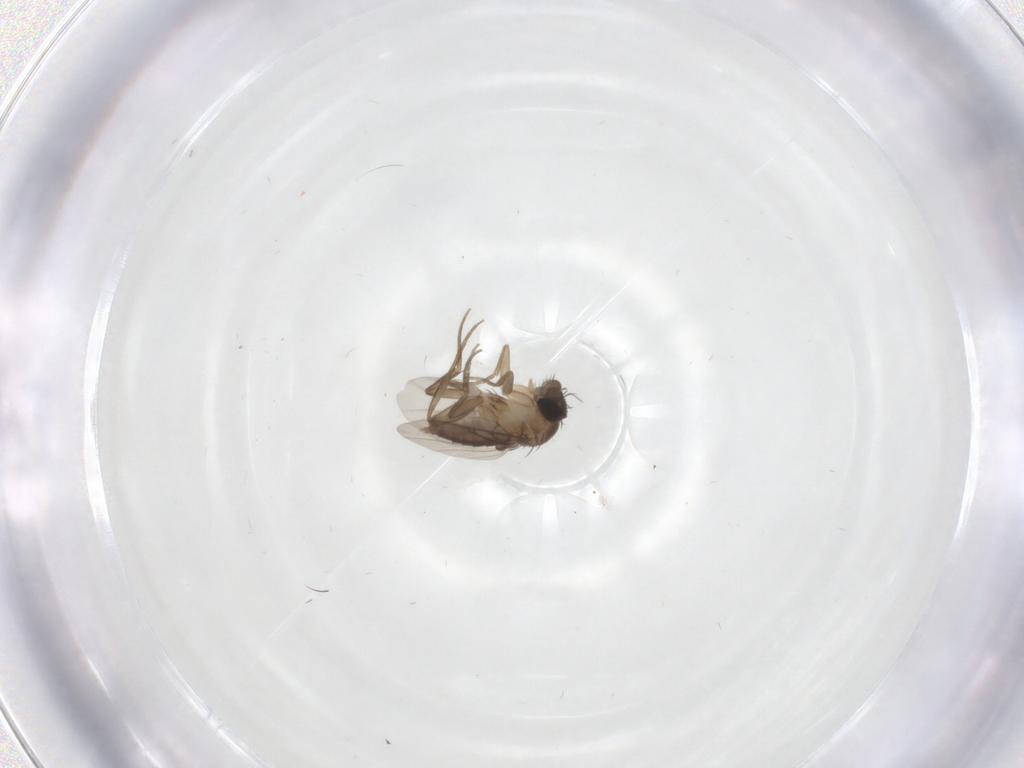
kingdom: Animalia
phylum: Arthropoda
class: Insecta
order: Diptera
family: Phoridae
